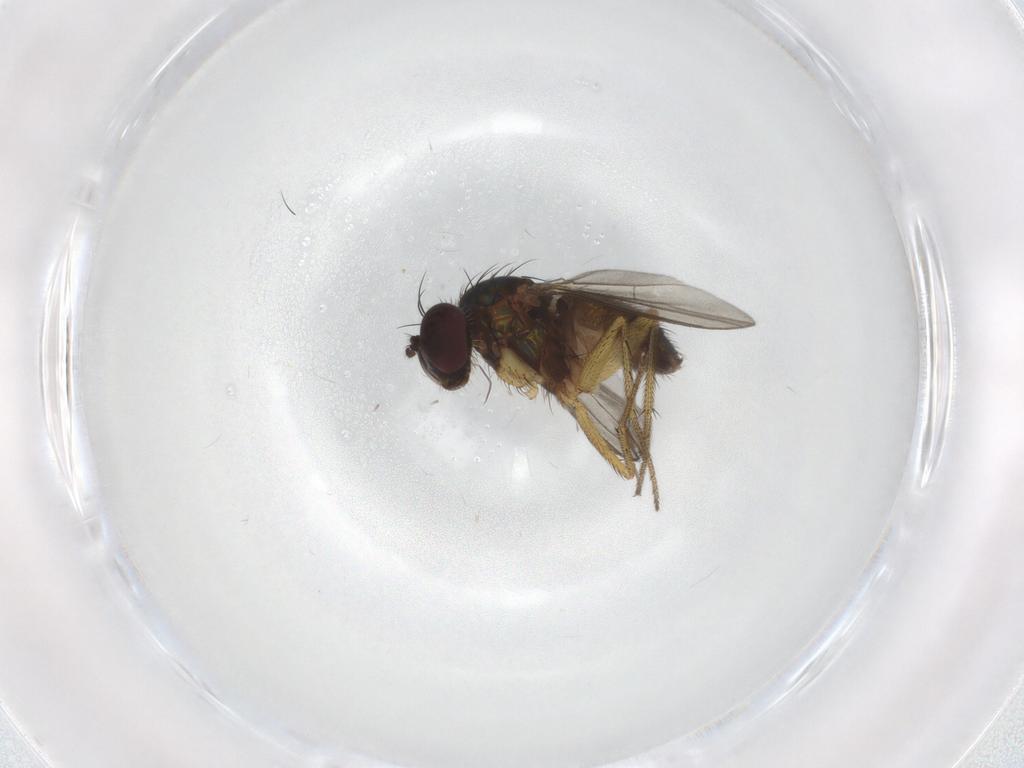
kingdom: Animalia
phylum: Arthropoda
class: Insecta
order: Diptera
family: Dolichopodidae
